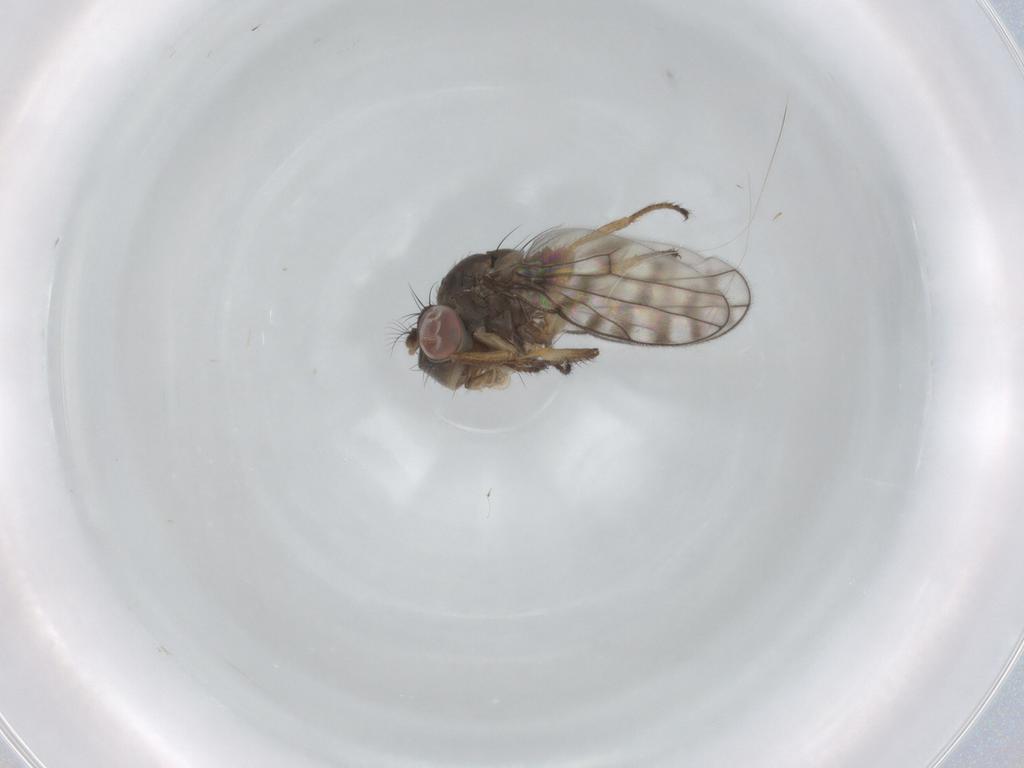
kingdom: Animalia
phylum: Arthropoda
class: Insecta
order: Diptera
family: Ephydridae
